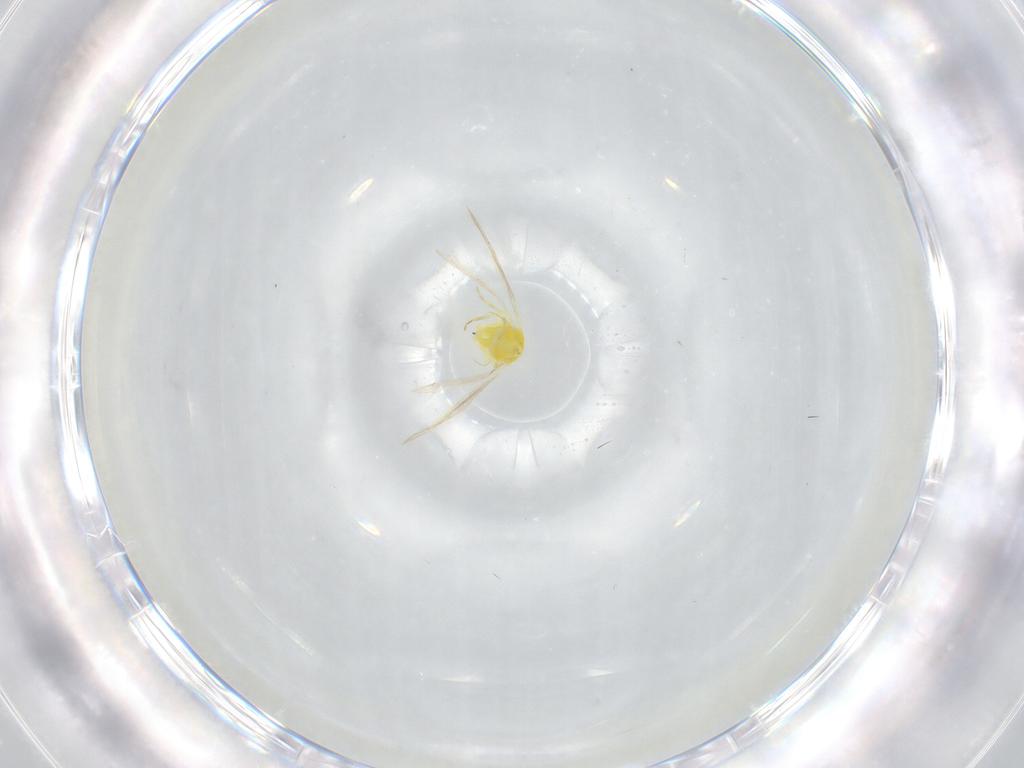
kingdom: Animalia
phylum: Arthropoda
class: Insecta
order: Hemiptera
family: Aleyrodidae
